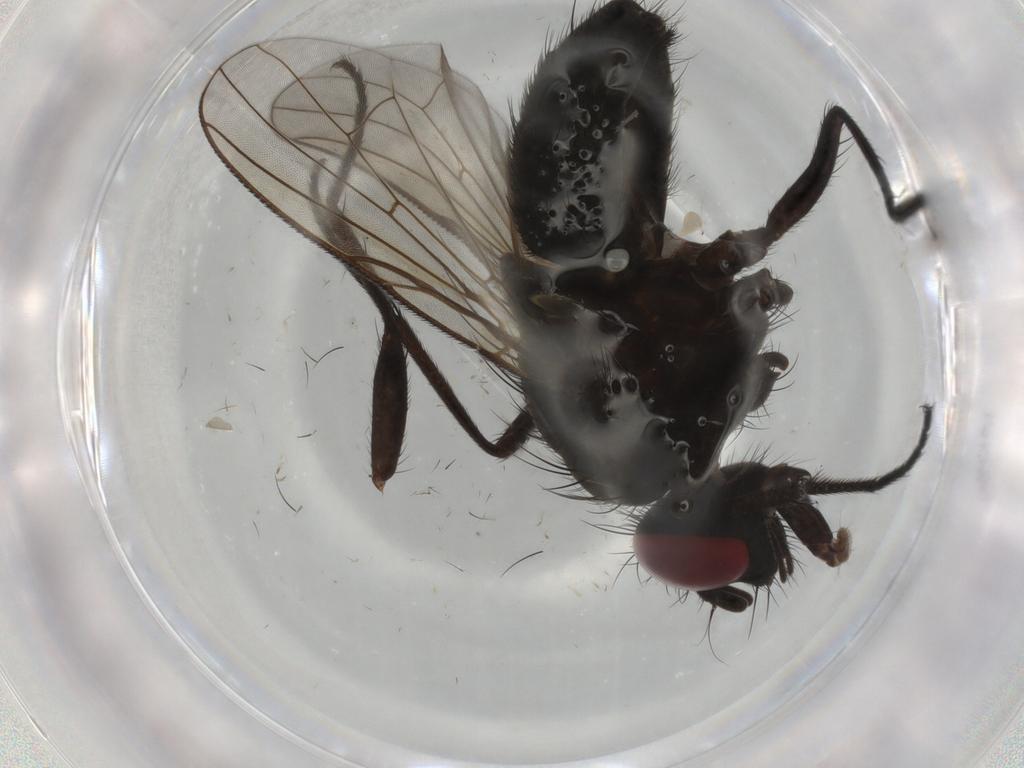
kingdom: Animalia
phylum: Arthropoda
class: Insecta
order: Diptera
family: Muscidae
